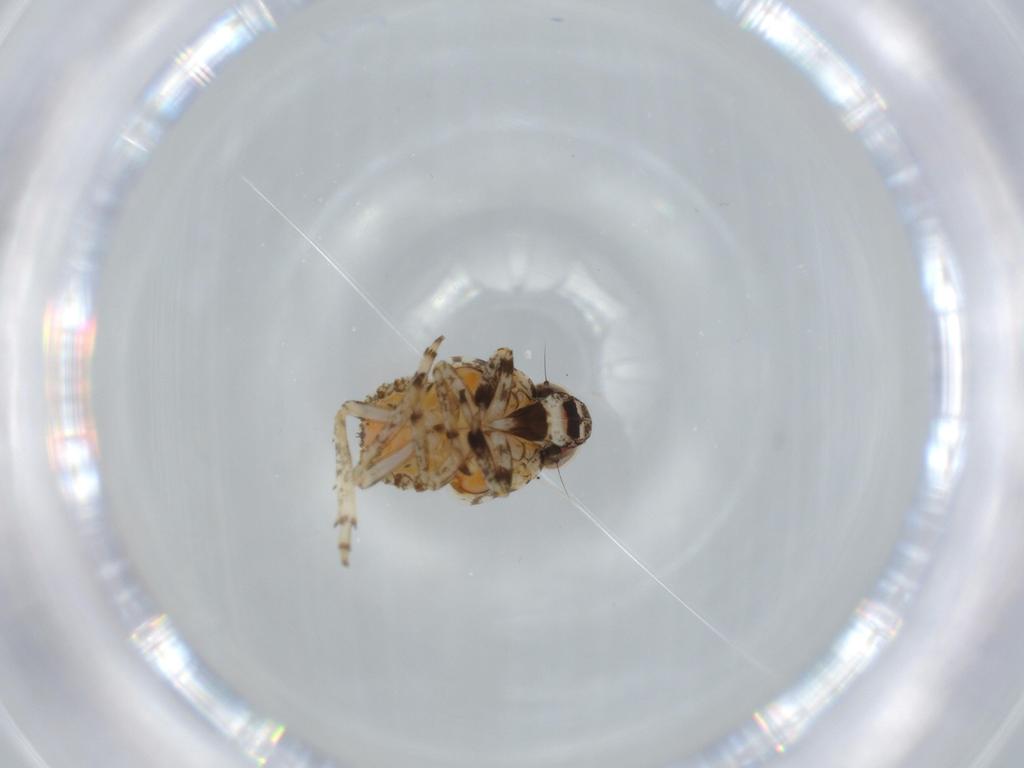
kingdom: Animalia
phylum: Arthropoda
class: Insecta
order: Hemiptera
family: Issidae
